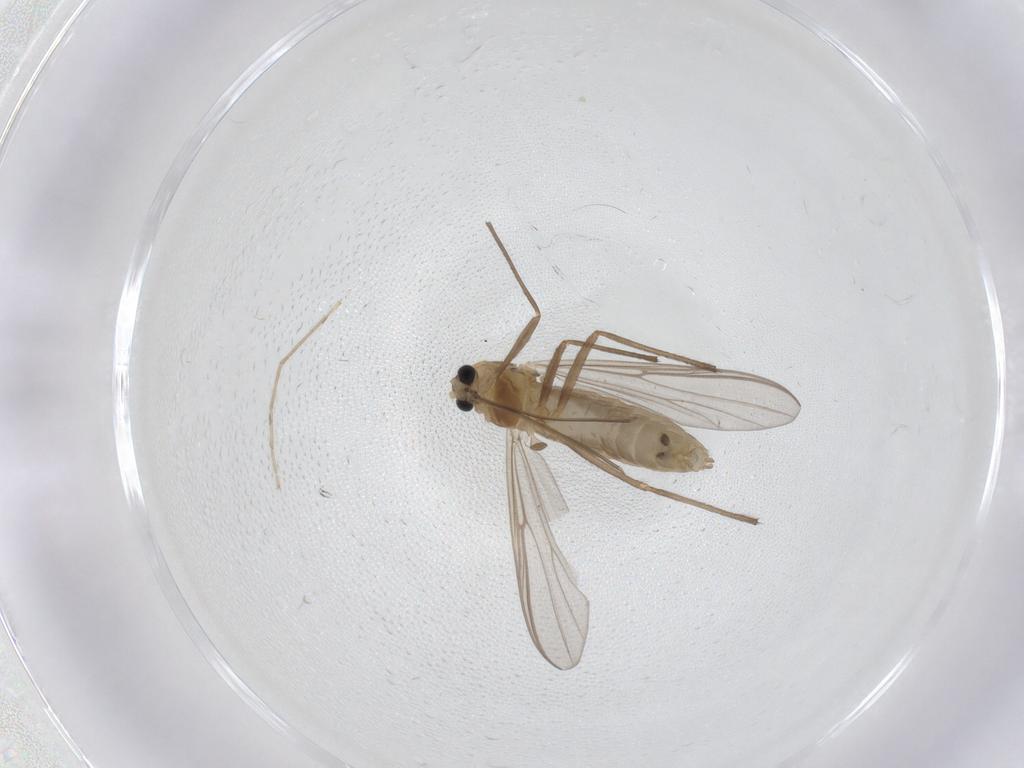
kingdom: Animalia
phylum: Arthropoda
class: Insecta
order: Diptera
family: Chironomidae
